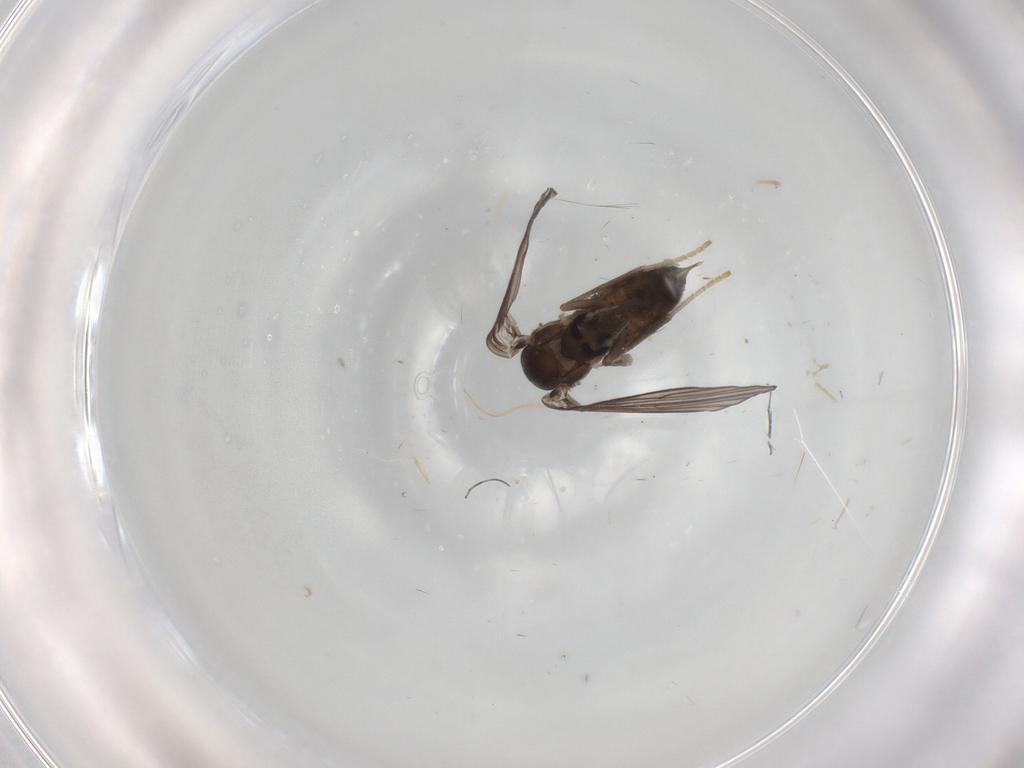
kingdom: Animalia
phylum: Arthropoda
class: Insecta
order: Diptera
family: Psychodidae
